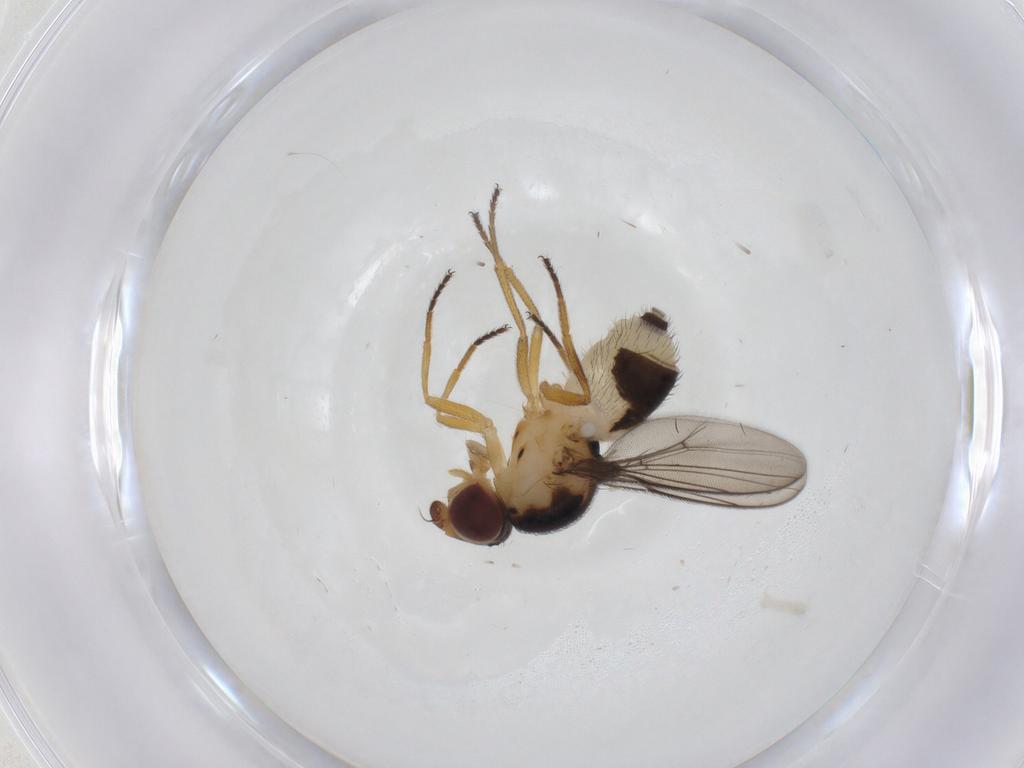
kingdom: Animalia
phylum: Arthropoda
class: Insecta
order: Diptera
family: Chloropidae
